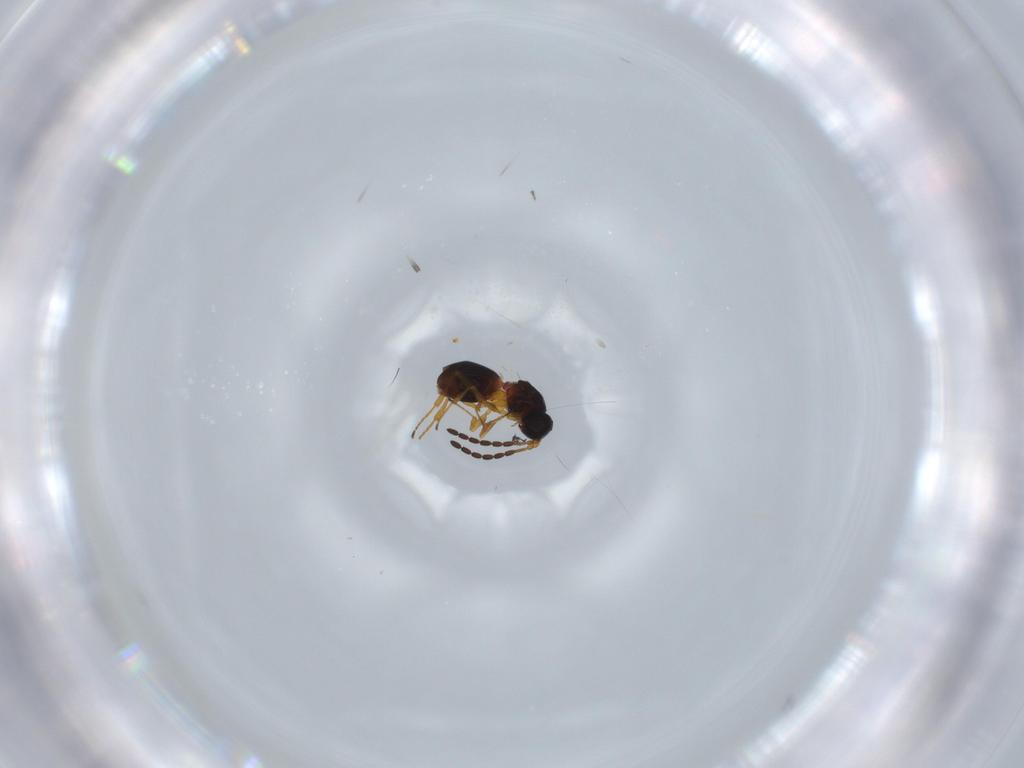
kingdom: Animalia
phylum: Arthropoda
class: Insecta
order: Hymenoptera
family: Figitidae
